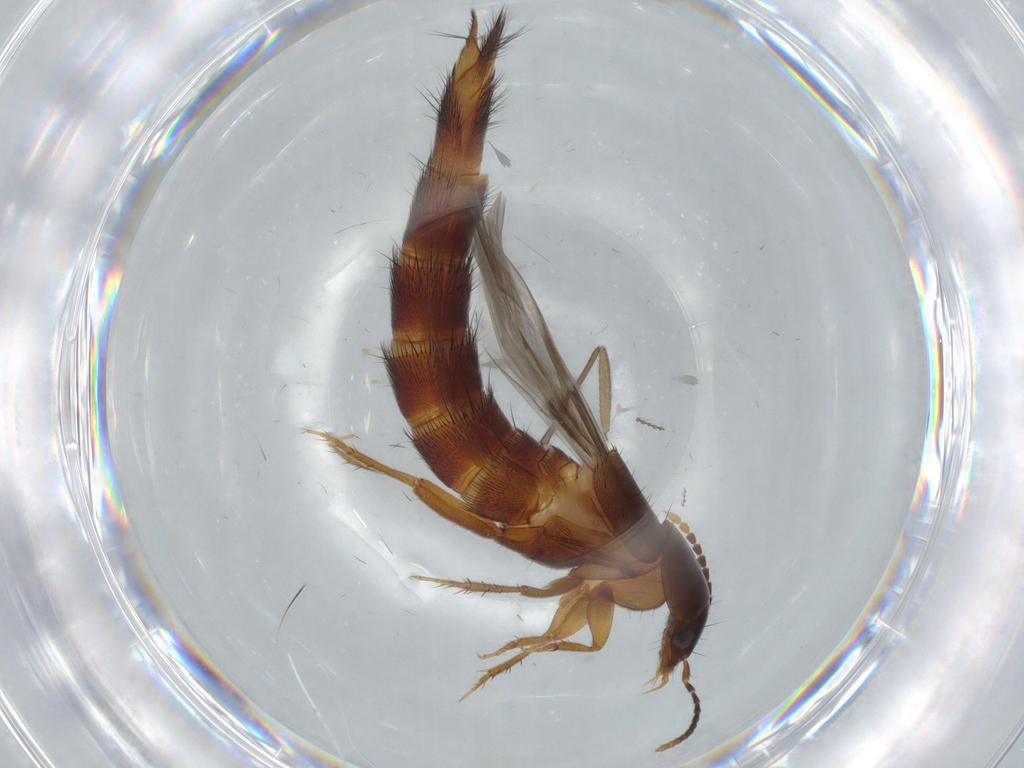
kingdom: Animalia
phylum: Arthropoda
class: Insecta
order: Coleoptera
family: Staphylinidae
